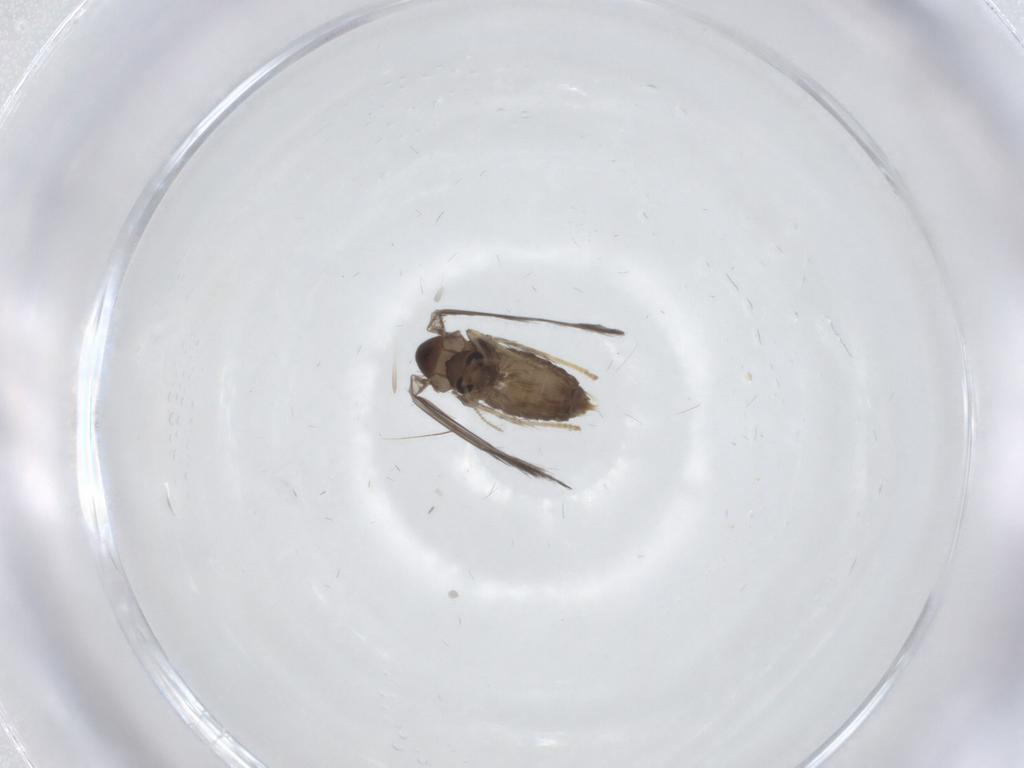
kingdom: Animalia
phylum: Arthropoda
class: Insecta
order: Diptera
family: Psychodidae
